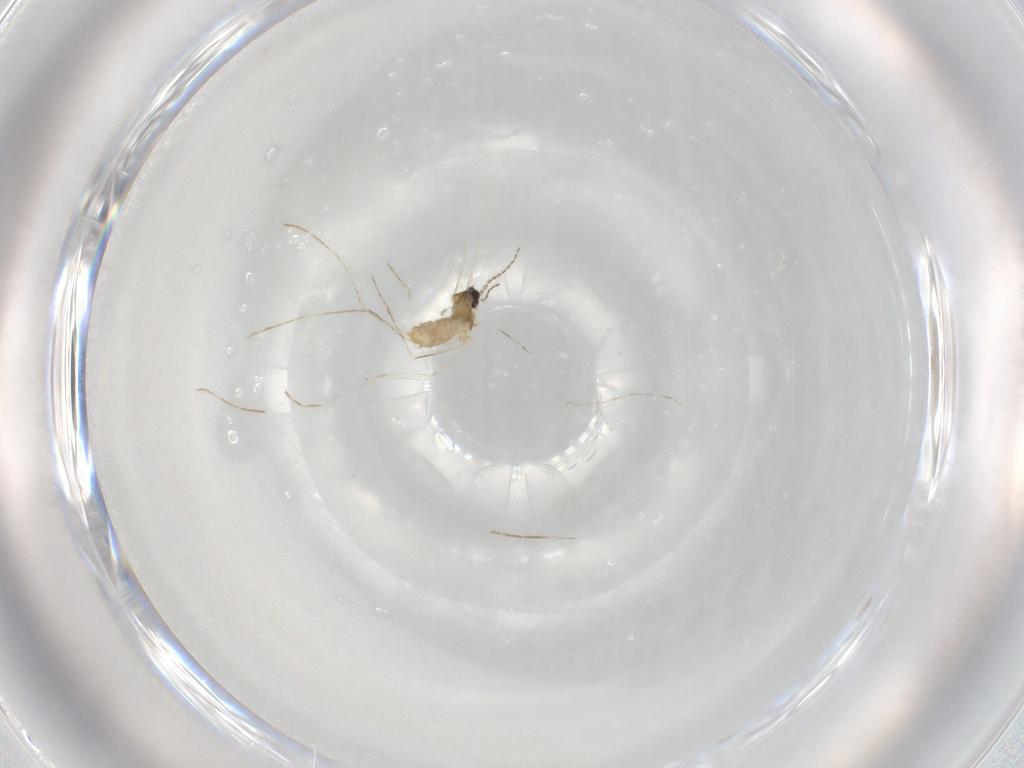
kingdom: Animalia
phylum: Arthropoda
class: Insecta
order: Diptera
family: Cecidomyiidae
